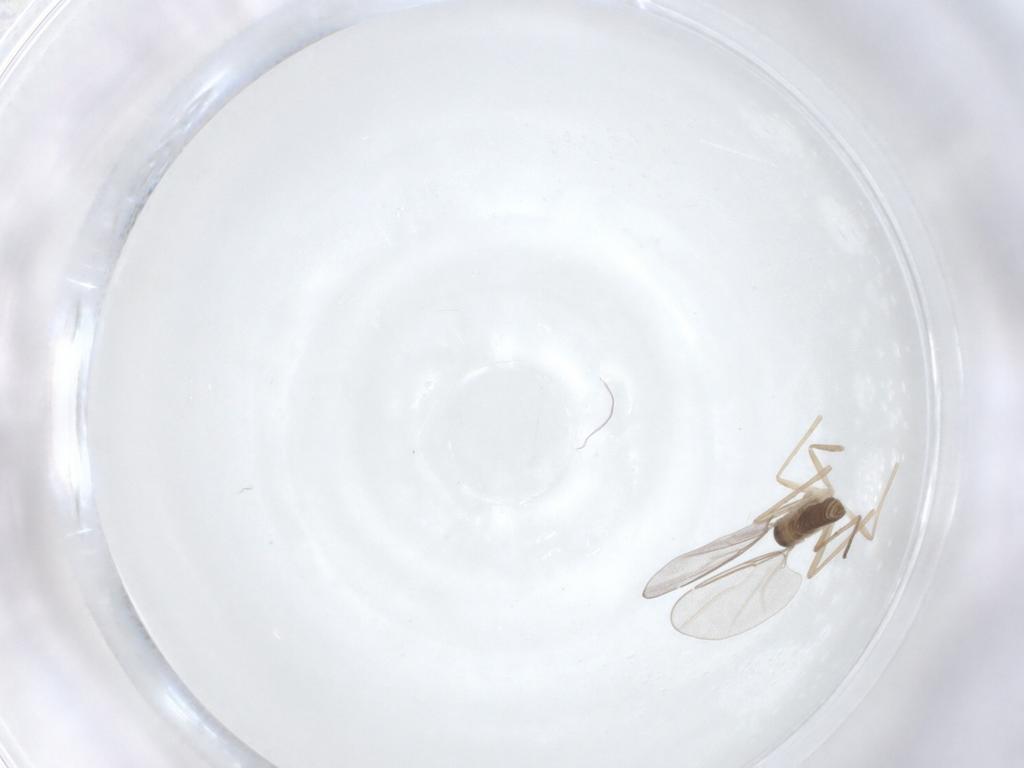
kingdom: Animalia
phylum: Arthropoda
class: Insecta
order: Diptera
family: Cecidomyiidae
